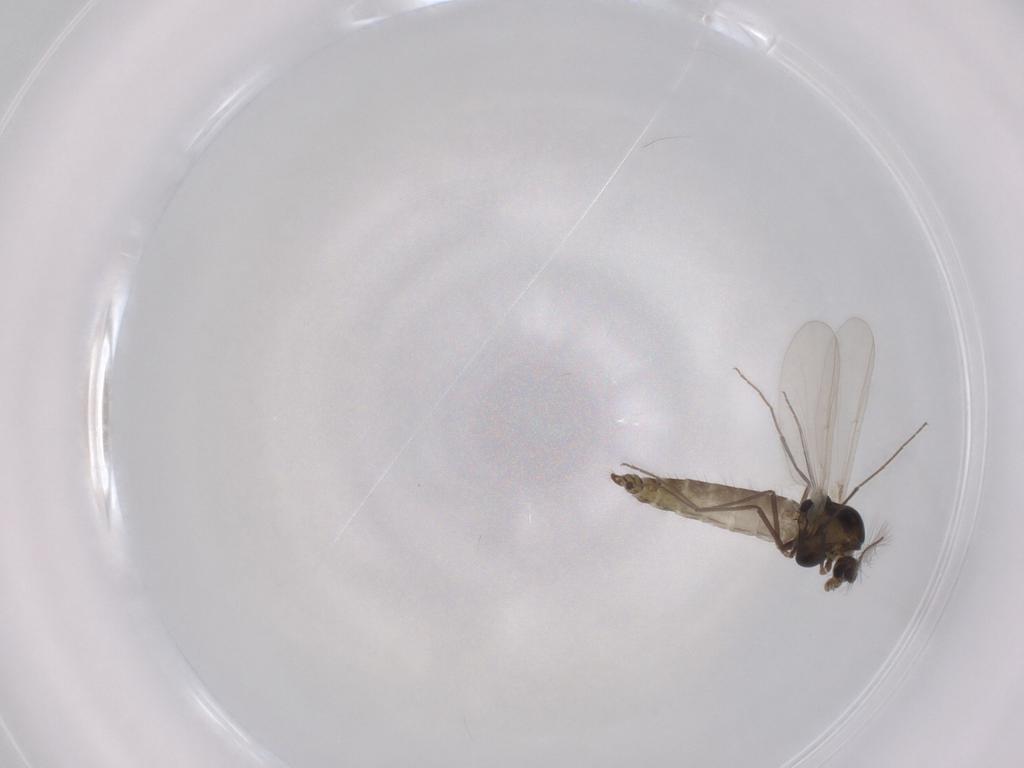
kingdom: Animalia
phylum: Arthropoda
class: Insecta
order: Diptera
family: Chironomidae
